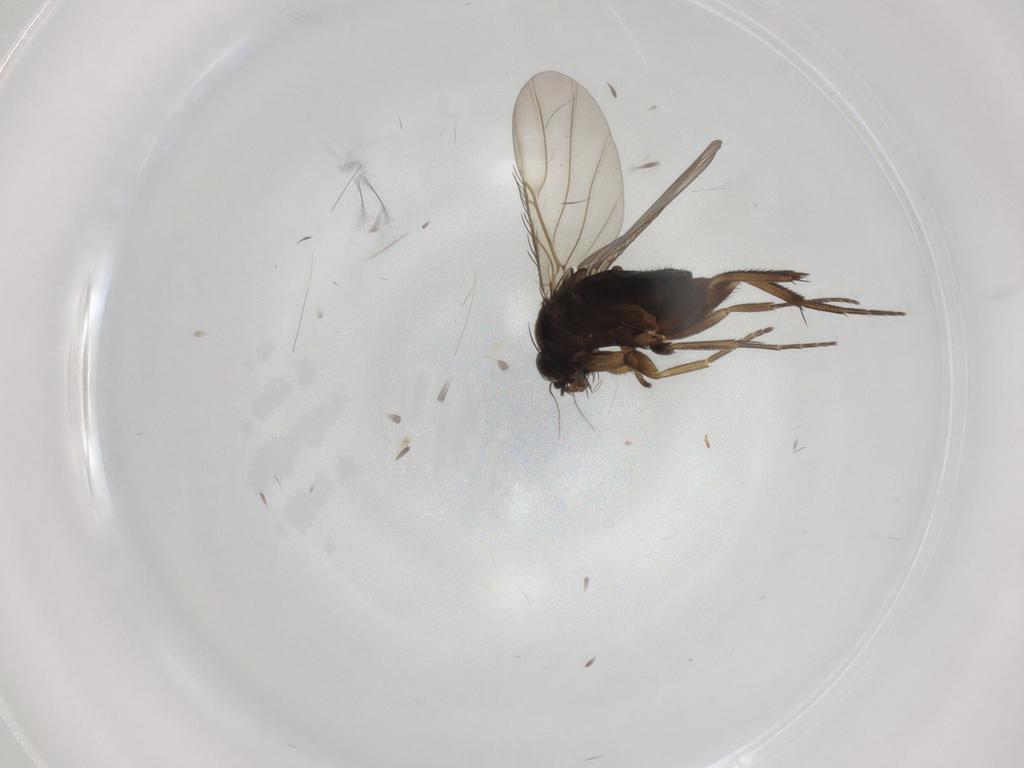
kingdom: Animalia
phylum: Arthropoda
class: Insecta
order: Diptera
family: Phoridae
